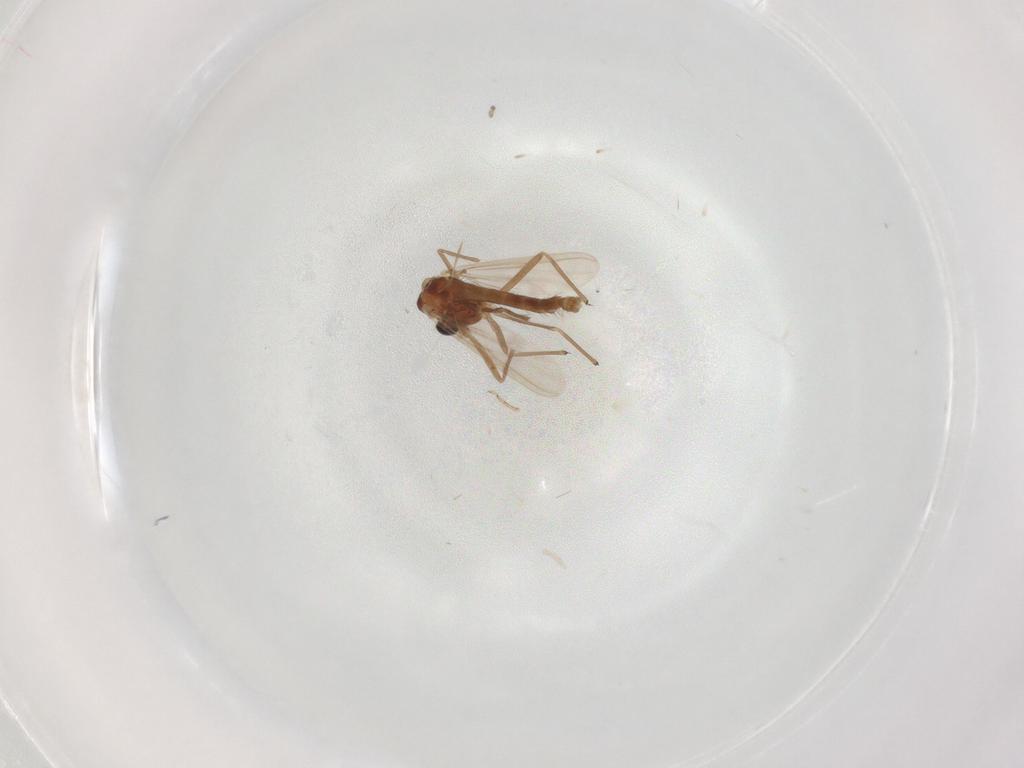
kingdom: Animalia
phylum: Arthropoda
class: Insecta
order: Diptera
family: Chironomidae
